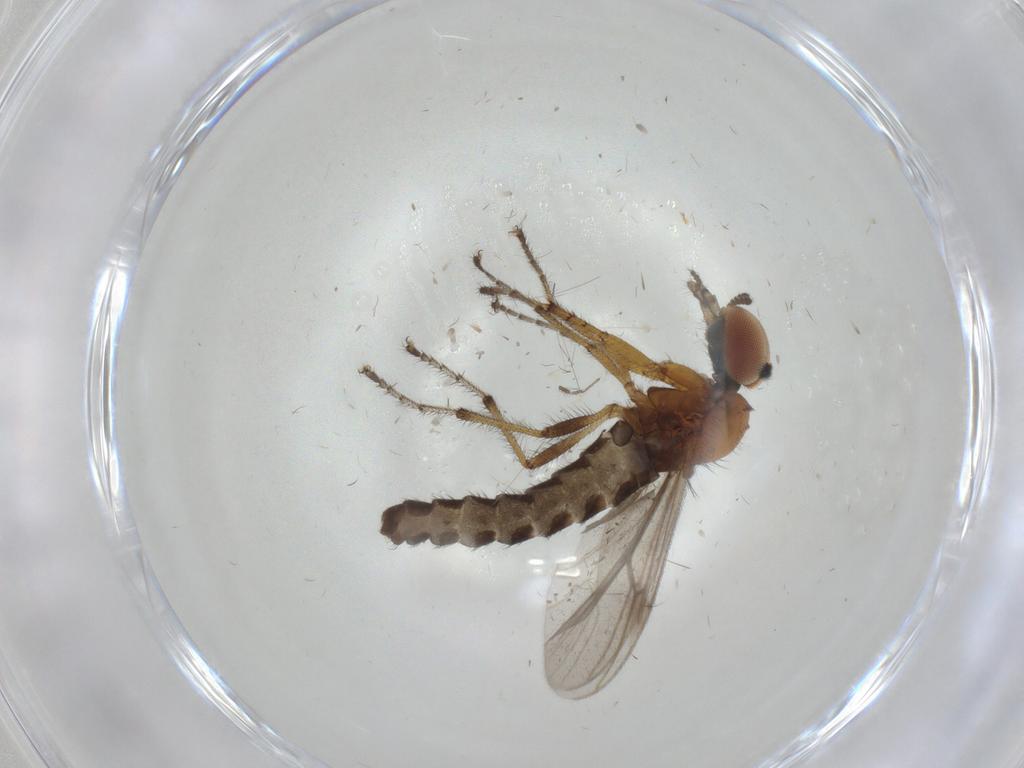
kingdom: Animalia
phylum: Arthropoda
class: Insecta
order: Diptera
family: Bibionidae
